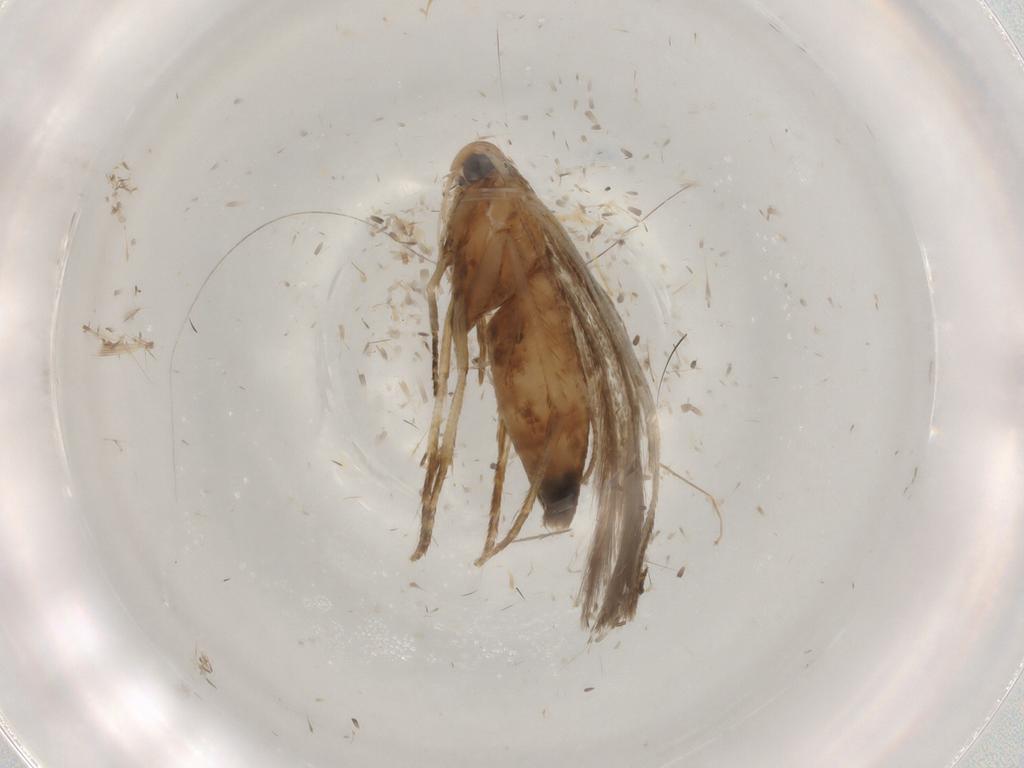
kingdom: Animalia
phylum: Arthropoda
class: Insecta
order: Lepidoptera
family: Cosmopterigidae
